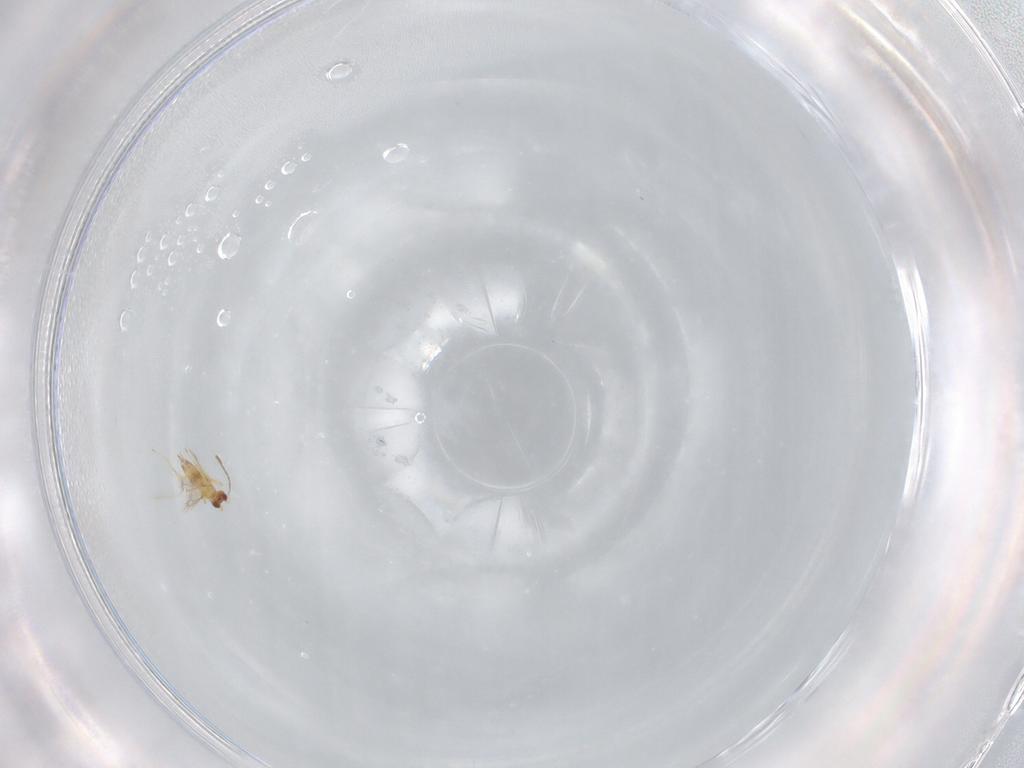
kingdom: Animalia
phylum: Arthropoda
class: Insecta
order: Hymenoptera
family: Mymaridae
